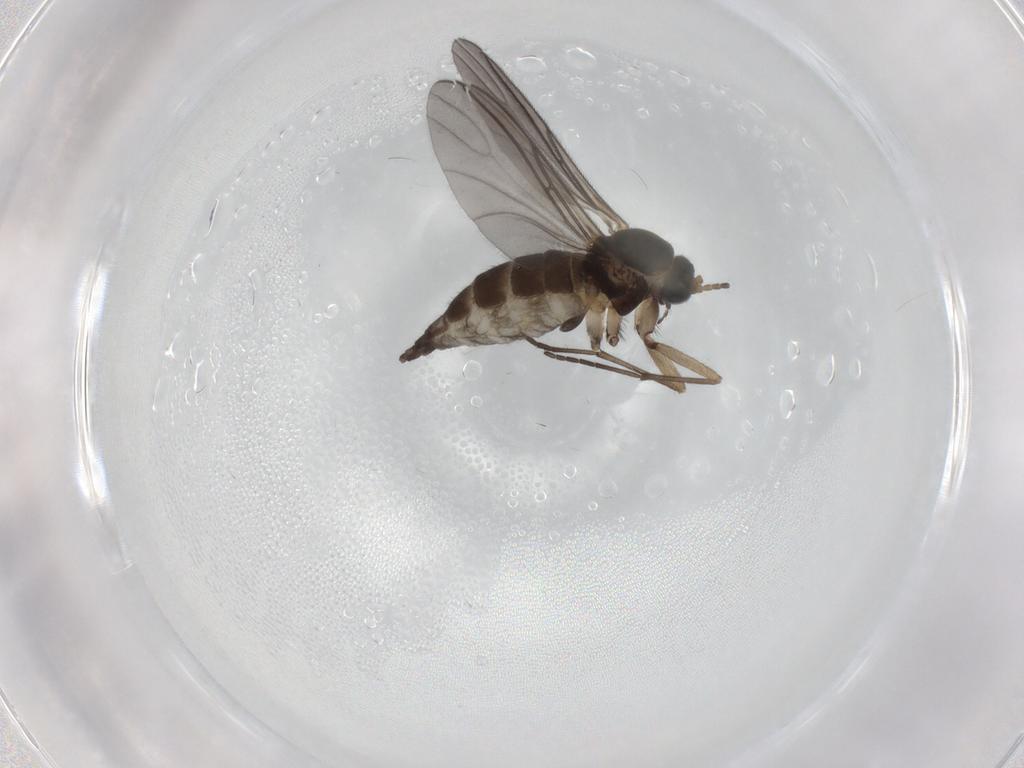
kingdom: Animalia
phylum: Arthropoda
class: Insecta
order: Diptera
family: Sciaridae
